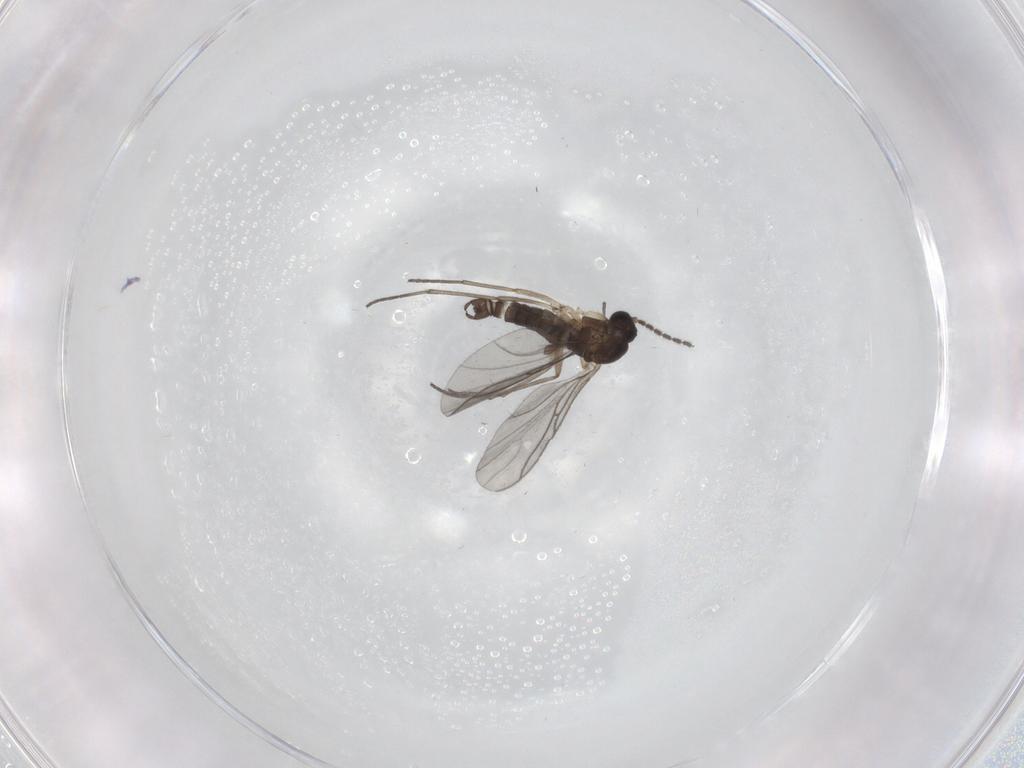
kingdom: Animalia
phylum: Arthropoda
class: Insecta
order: Diptera
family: Sciaridae
